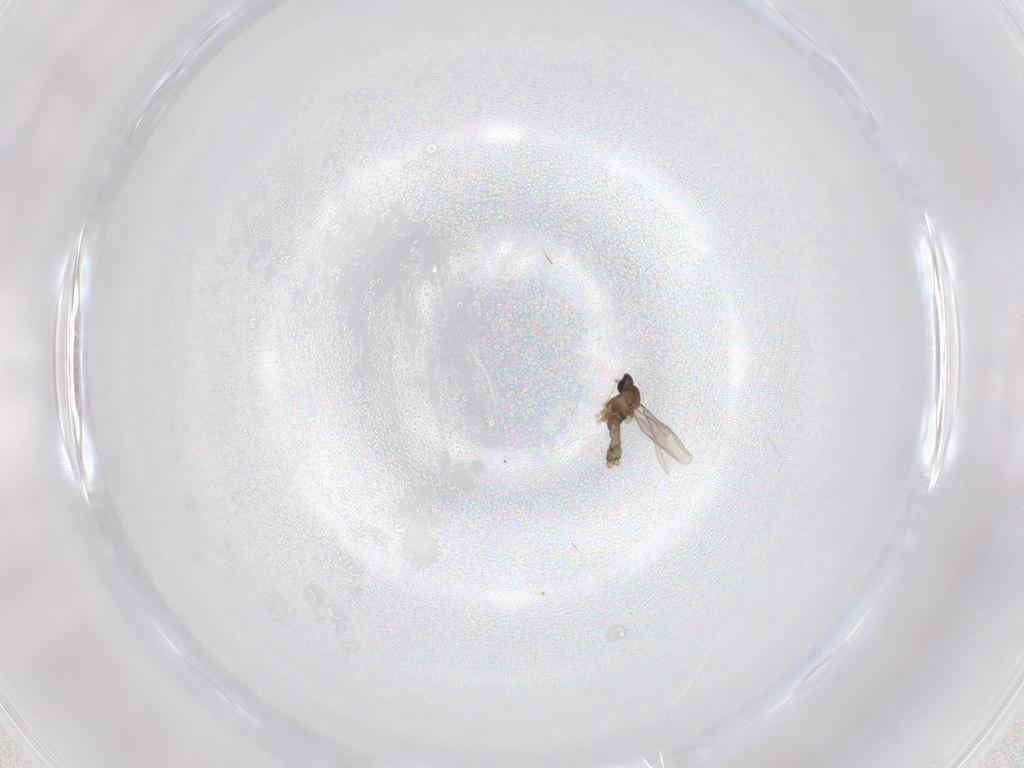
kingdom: Animalia
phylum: Arthropoda
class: Insecta
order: Diptera
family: Cecidomyiidae
